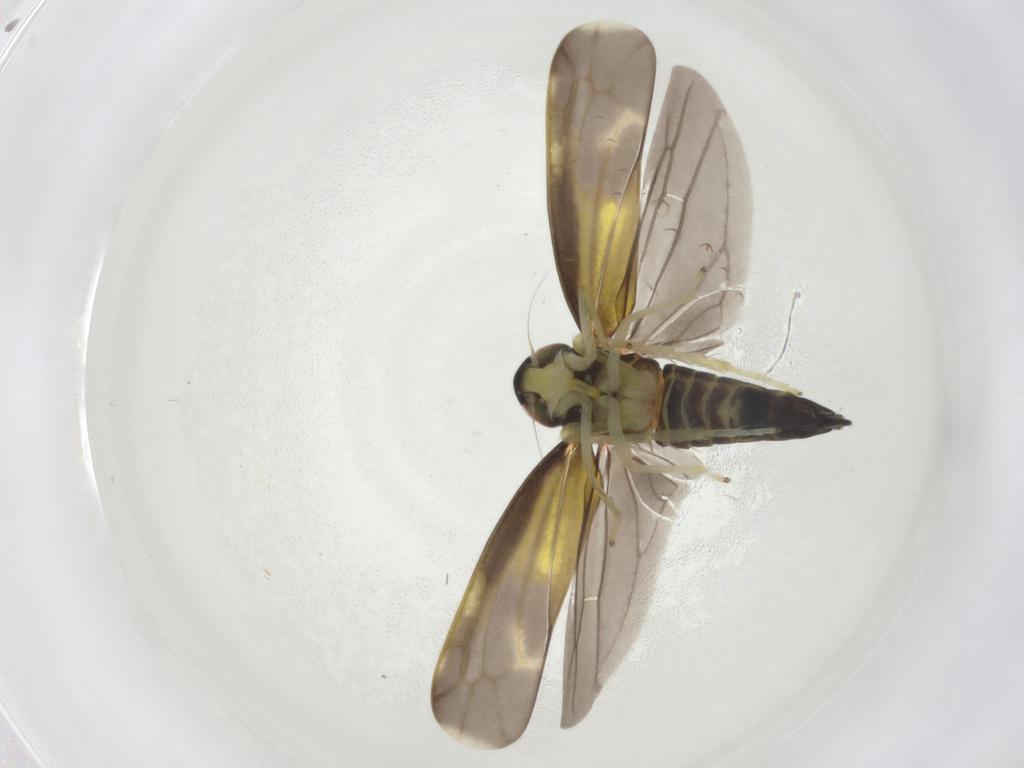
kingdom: Animalia
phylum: Arthropoda
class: Insecta
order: Hemiptera
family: Cicadellidae
